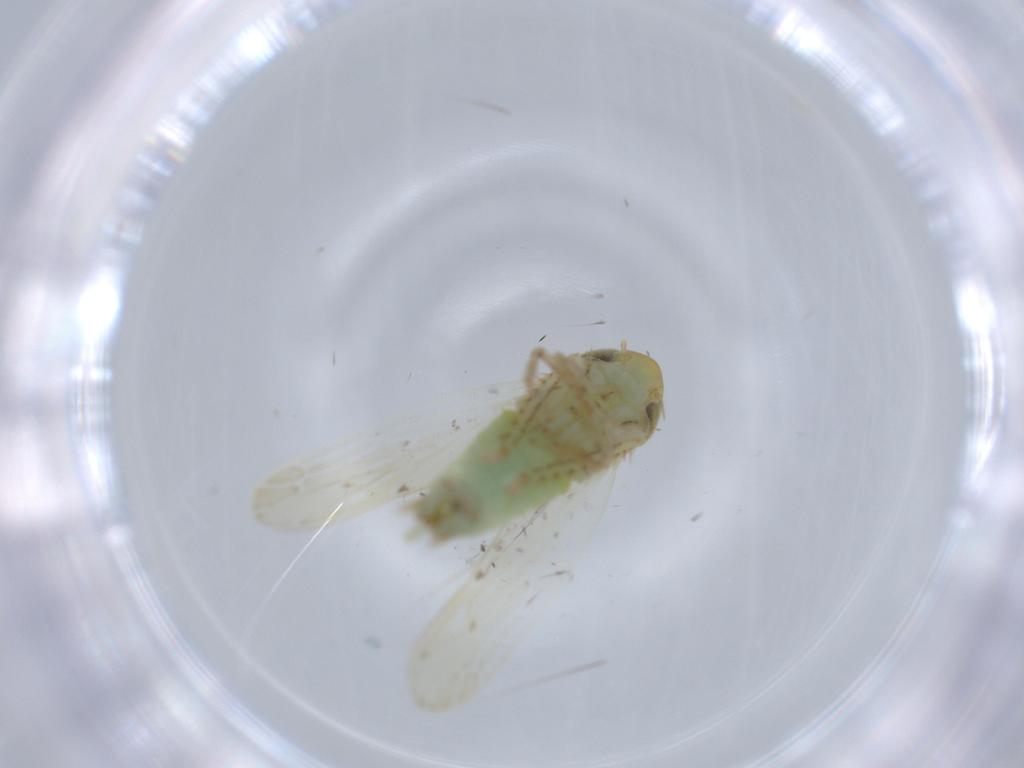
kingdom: Animalia
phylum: Arthropoda
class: Insecta
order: Hemiptera
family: Cicadellidae
